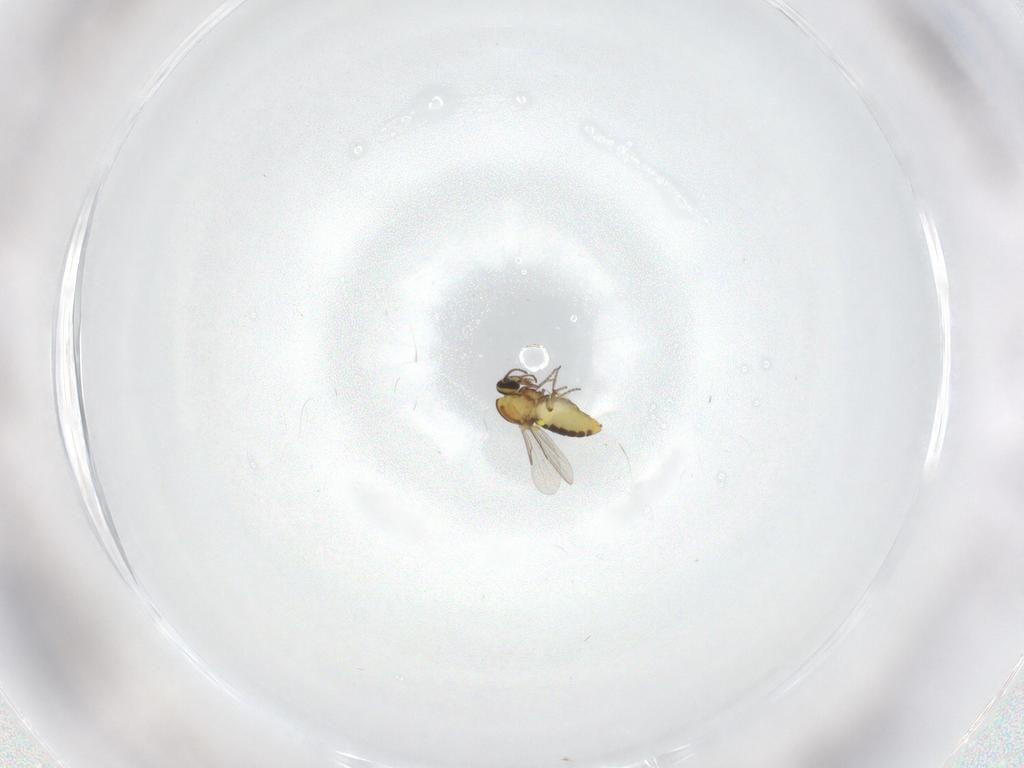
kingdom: Animalia
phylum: Arthropoda
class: Insecta
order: Diptera
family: Ceratopogonidae
